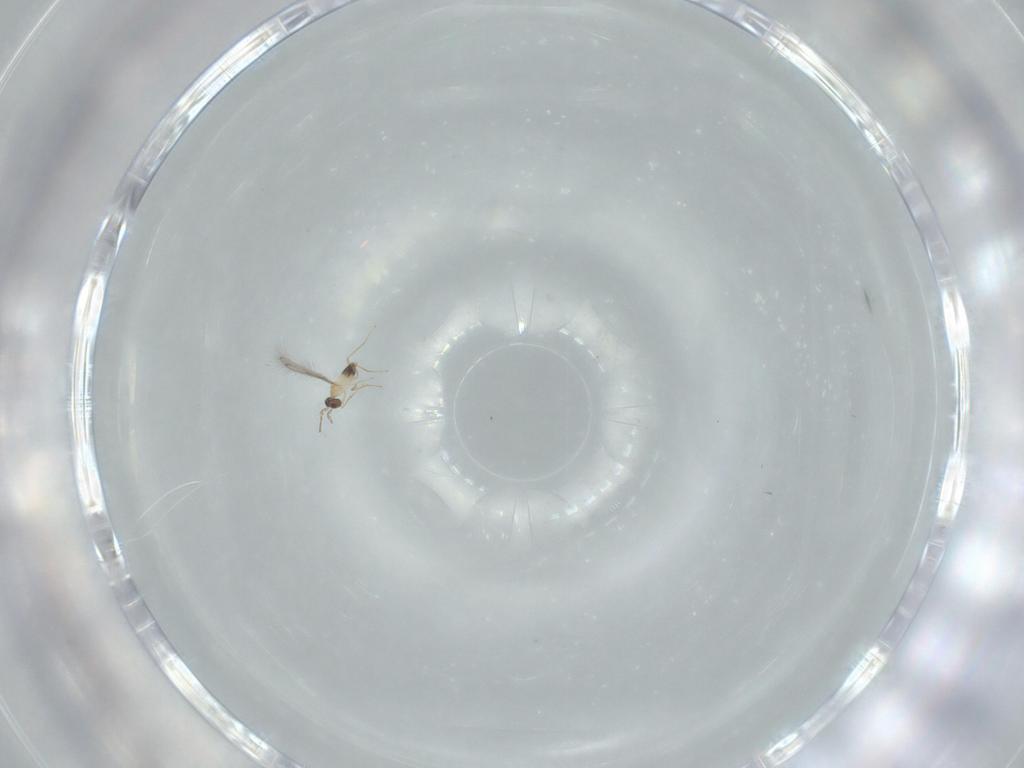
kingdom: Animalia
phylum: Arthropoda
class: Insecta
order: Hymenoptera
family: Mymaridae
